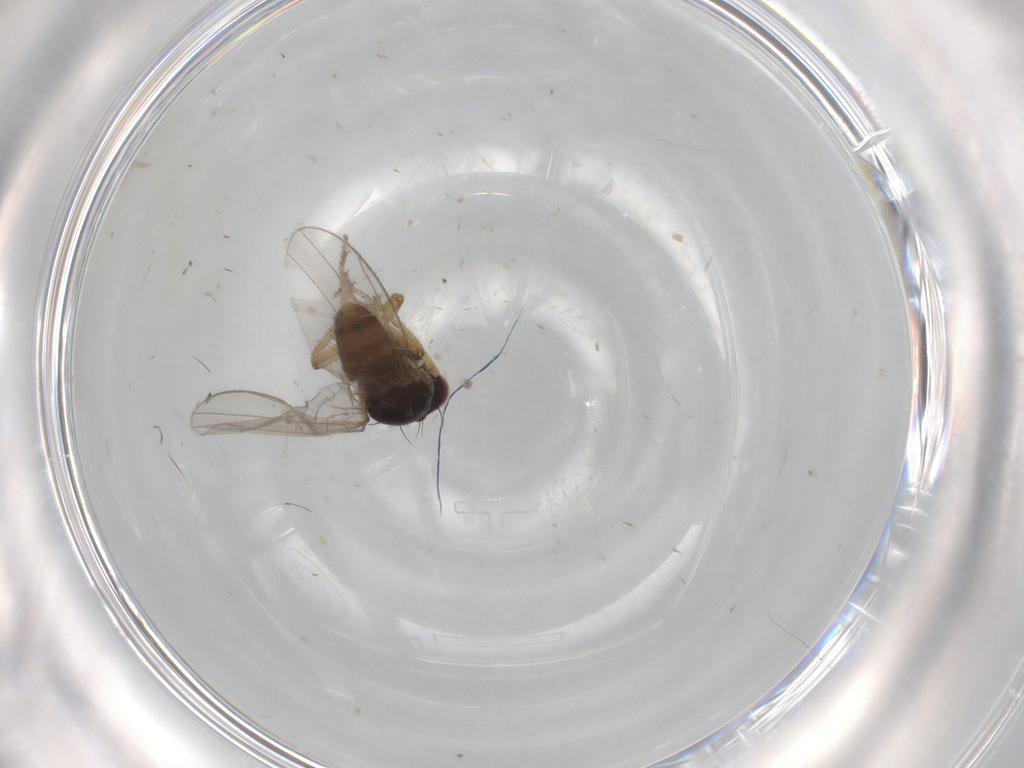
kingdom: Animalia
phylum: Arthropoda
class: Insecta
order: Diptera
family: Ephydridae
